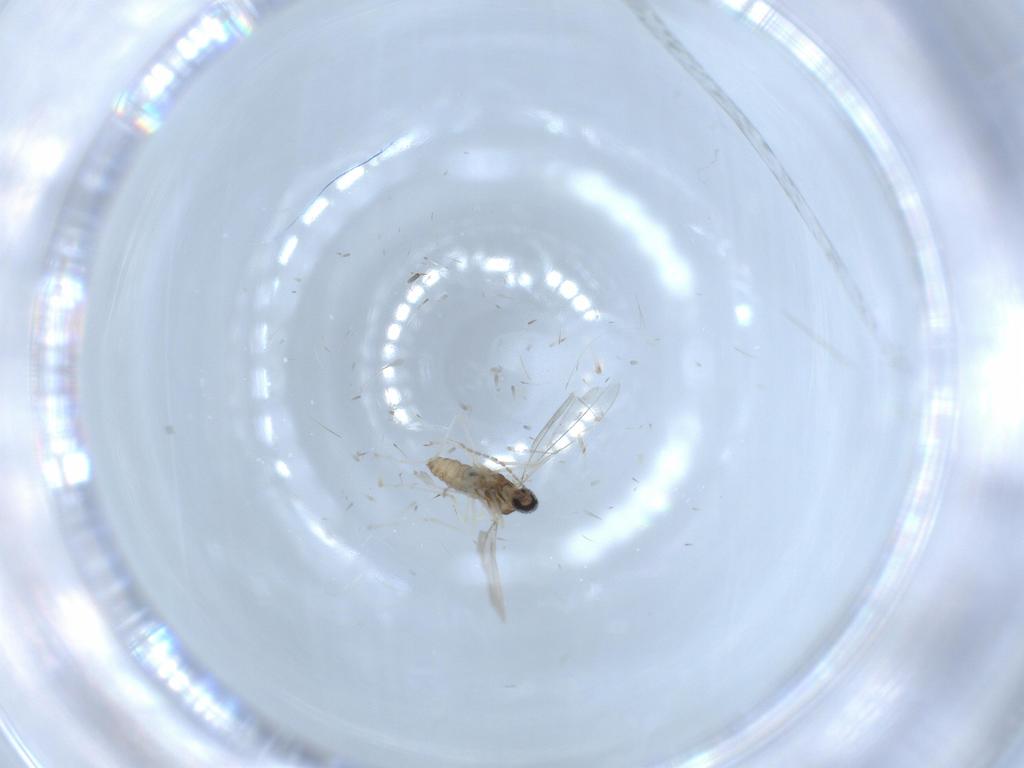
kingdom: Animalia
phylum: Arthropoda
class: Insecta
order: Diptera
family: Cecidomyiidae
